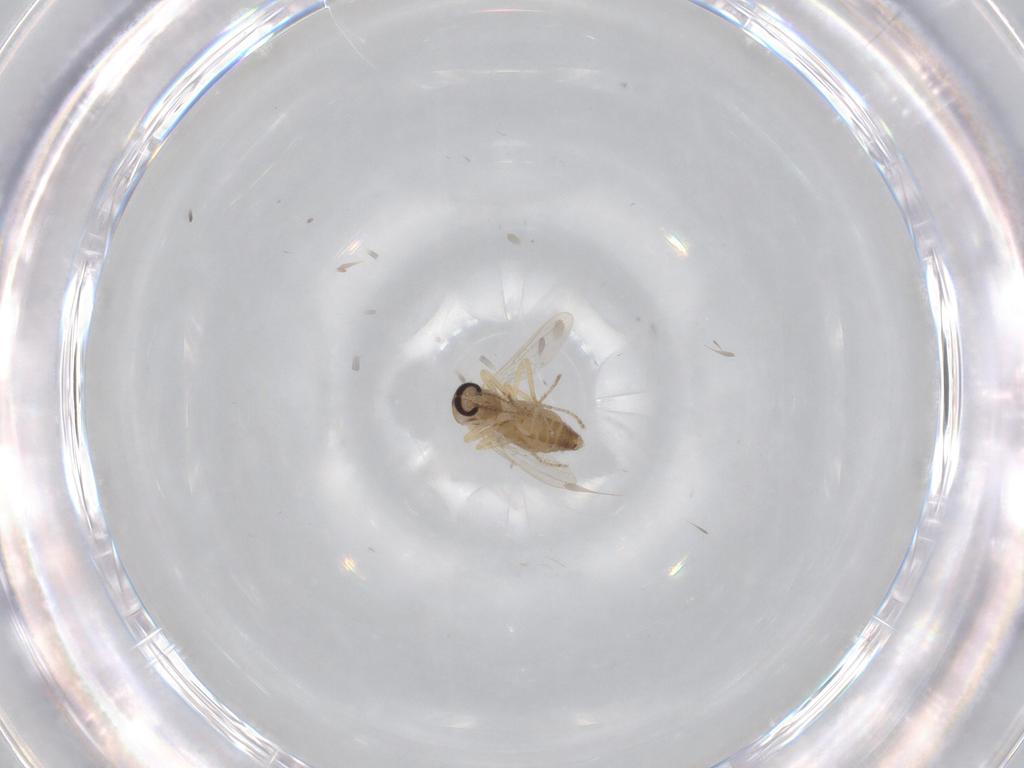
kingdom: Animalia
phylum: Arthropoda
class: Insecta
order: Diptera
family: Ceratopogonidae
